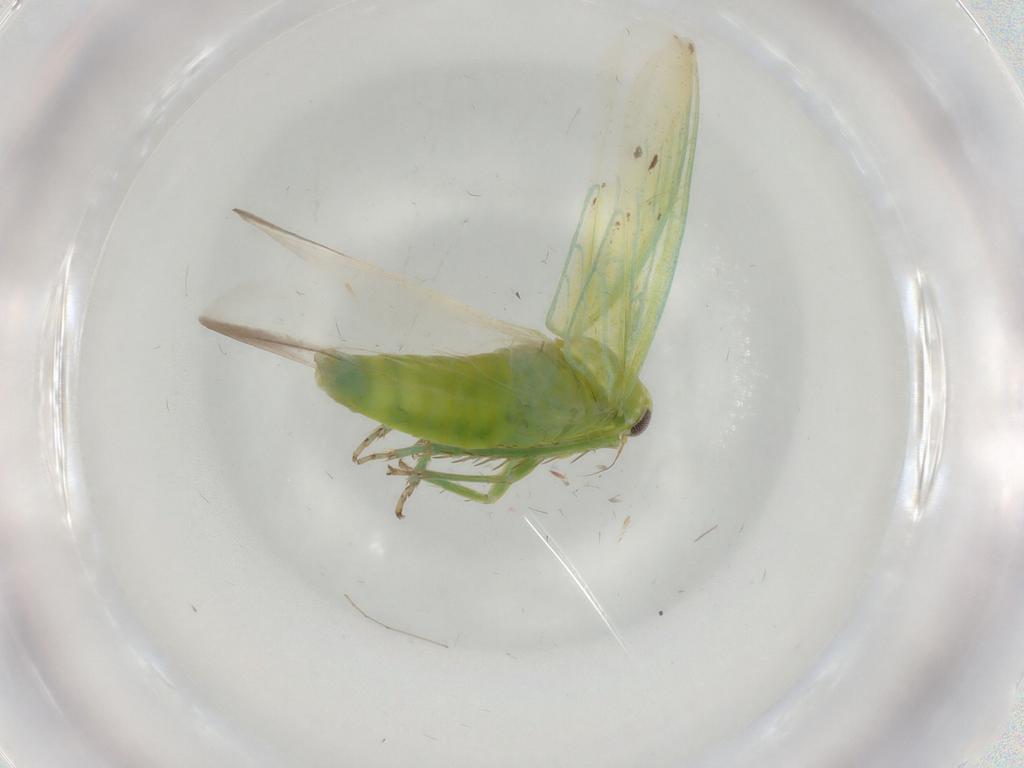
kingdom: Animalia
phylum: Arthropoda
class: Insecta
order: Hemiptera
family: Cicadellidae
